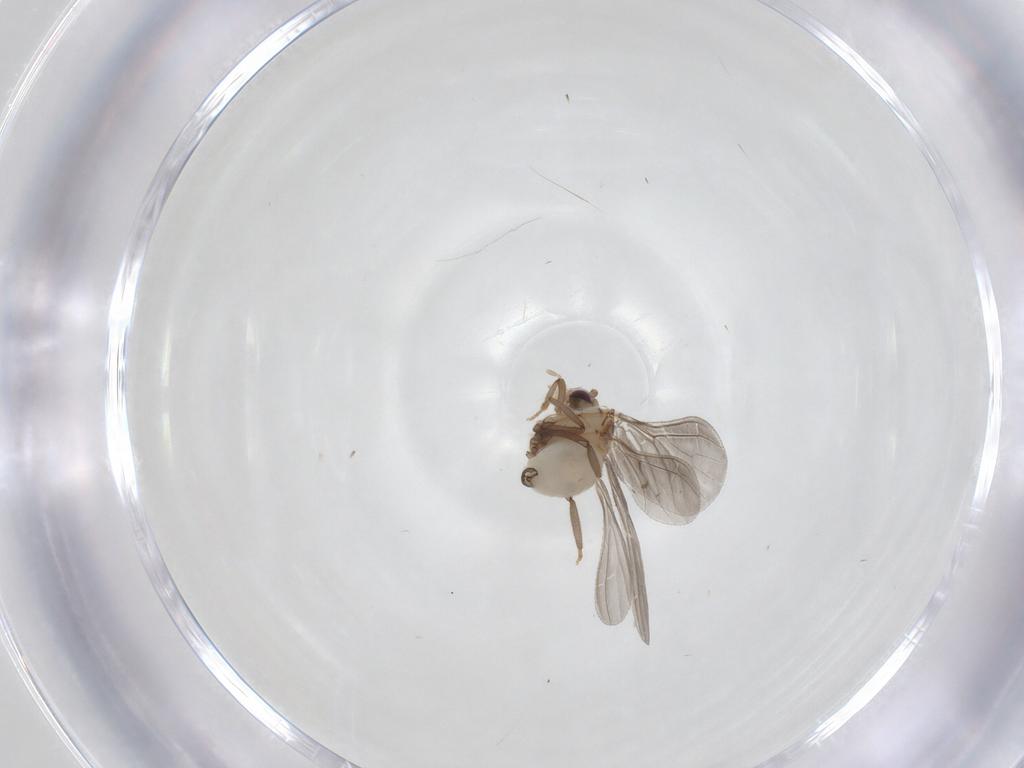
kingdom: Animalia
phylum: Arthropoda
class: Insecta
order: Neuroptera
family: Coniopterygidae
